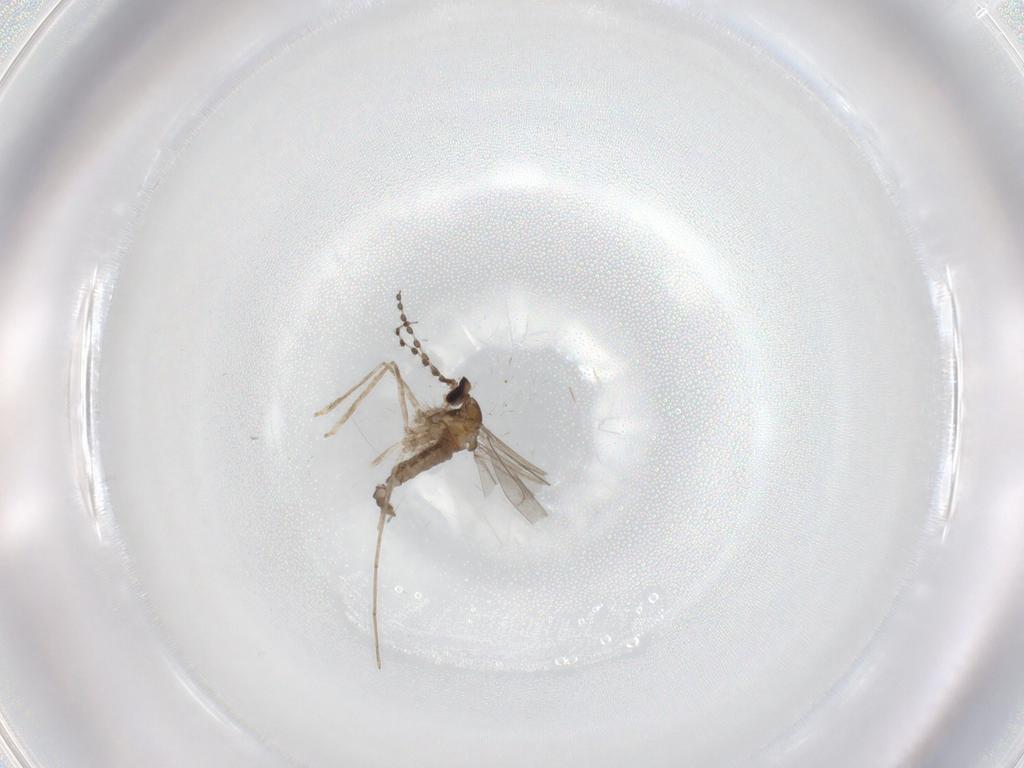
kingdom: Animalia
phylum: Arthropoda
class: Insecta
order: Diptera
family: Cecidomyiidae
